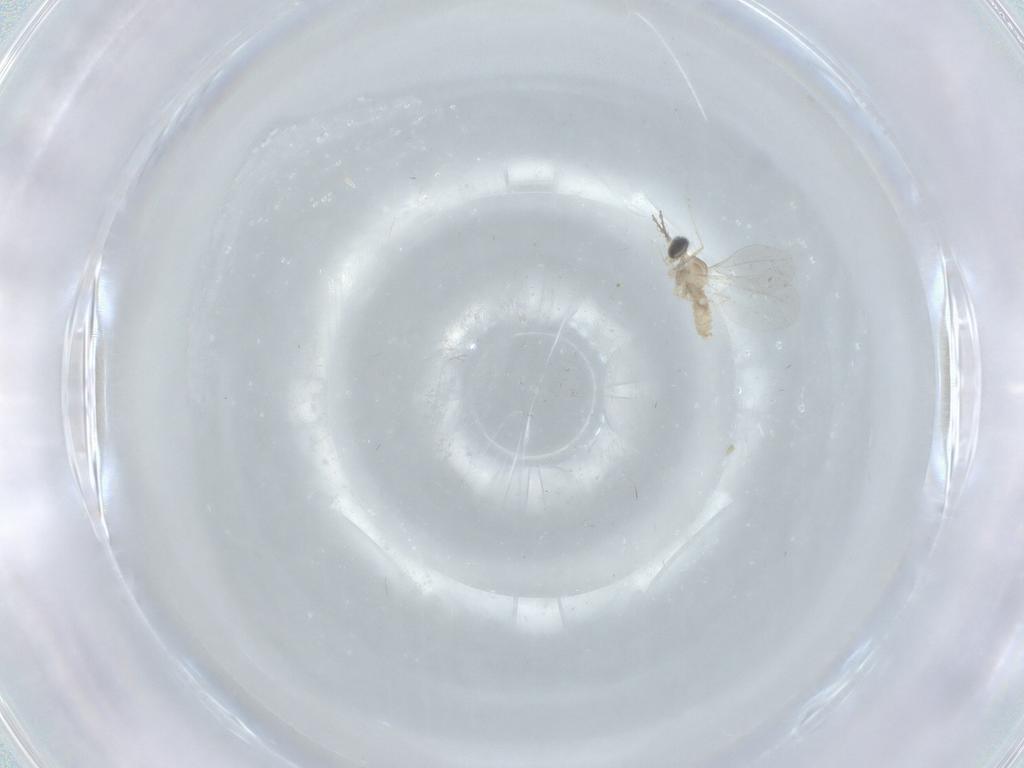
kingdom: Animalia
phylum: Arthropoda
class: Insecta
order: Diptera
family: Cecidomyiidae
